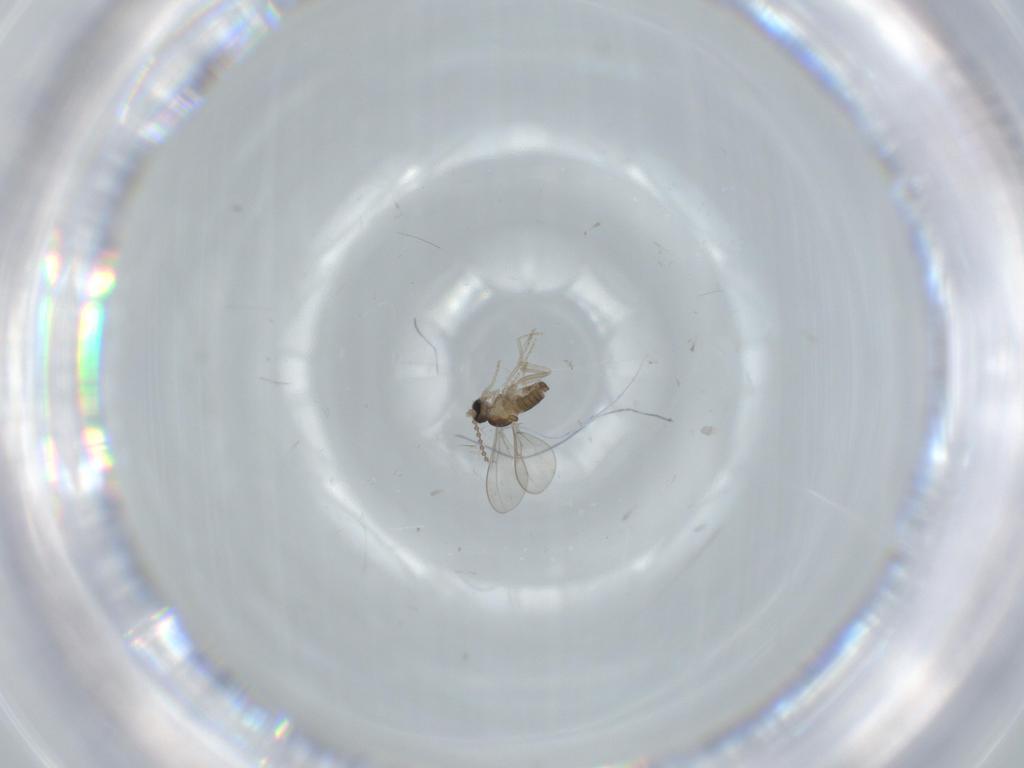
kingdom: Animalia
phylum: Arthropoda
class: Insecta
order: Diptera
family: Cecidomyiidae
